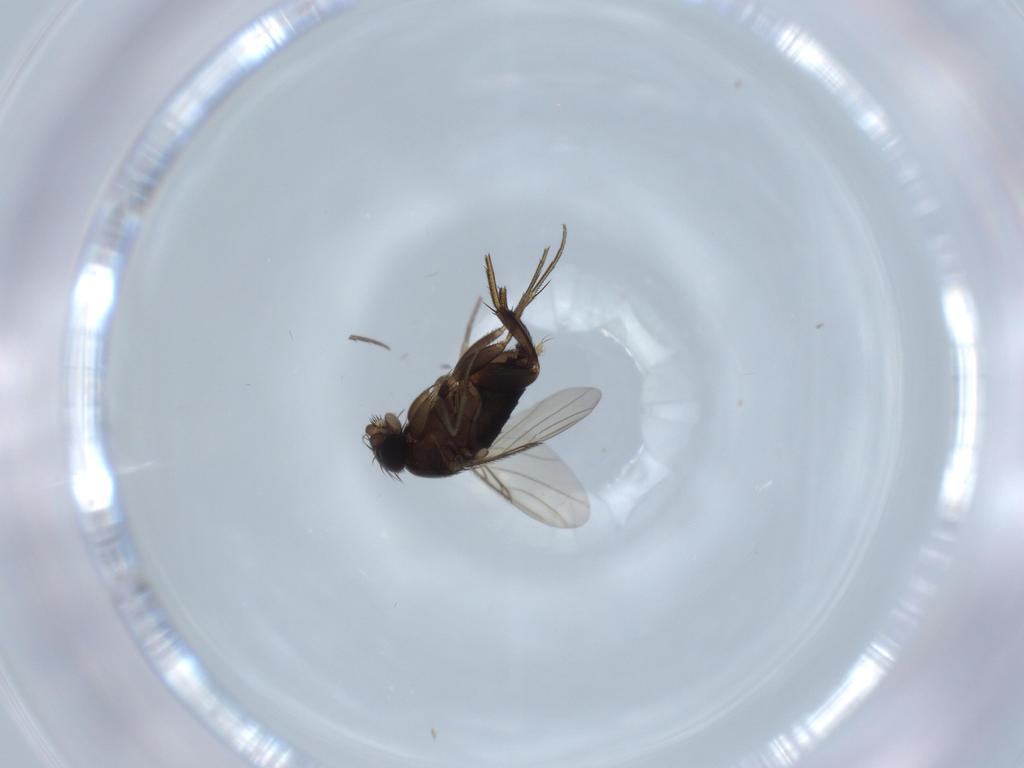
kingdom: Animalia
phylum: Arthropoda
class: Insecta
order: Diptera
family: Phoridae
